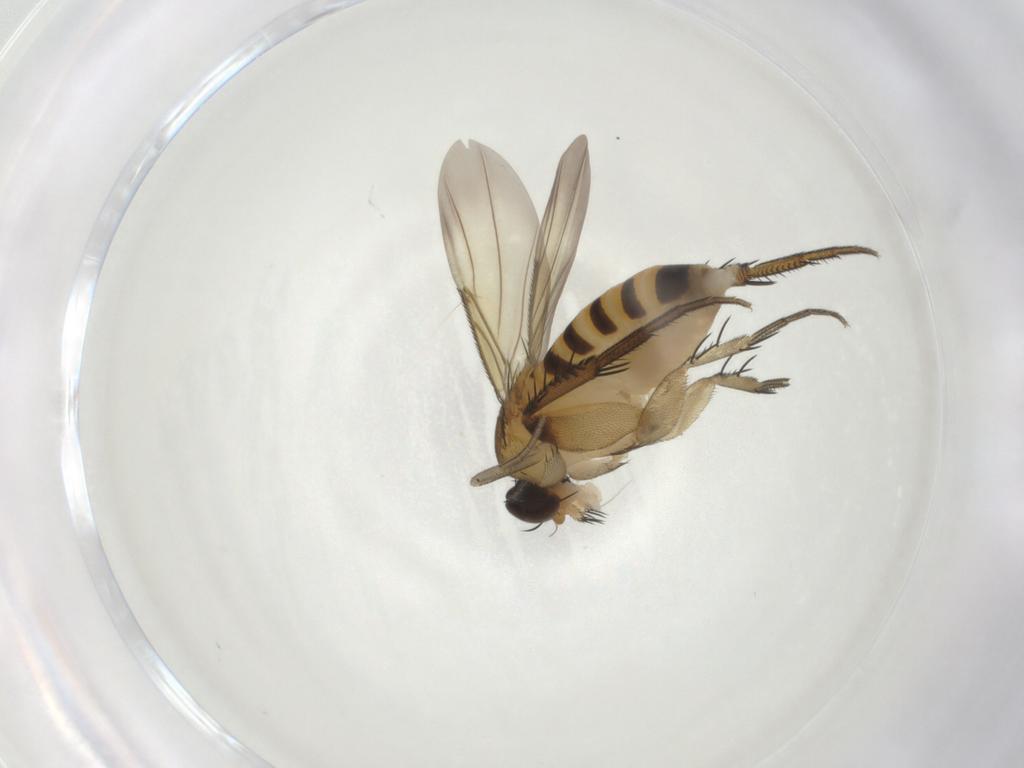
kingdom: Animalia
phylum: Arthropoda
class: Insecta
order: Diptera
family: Phoridae
